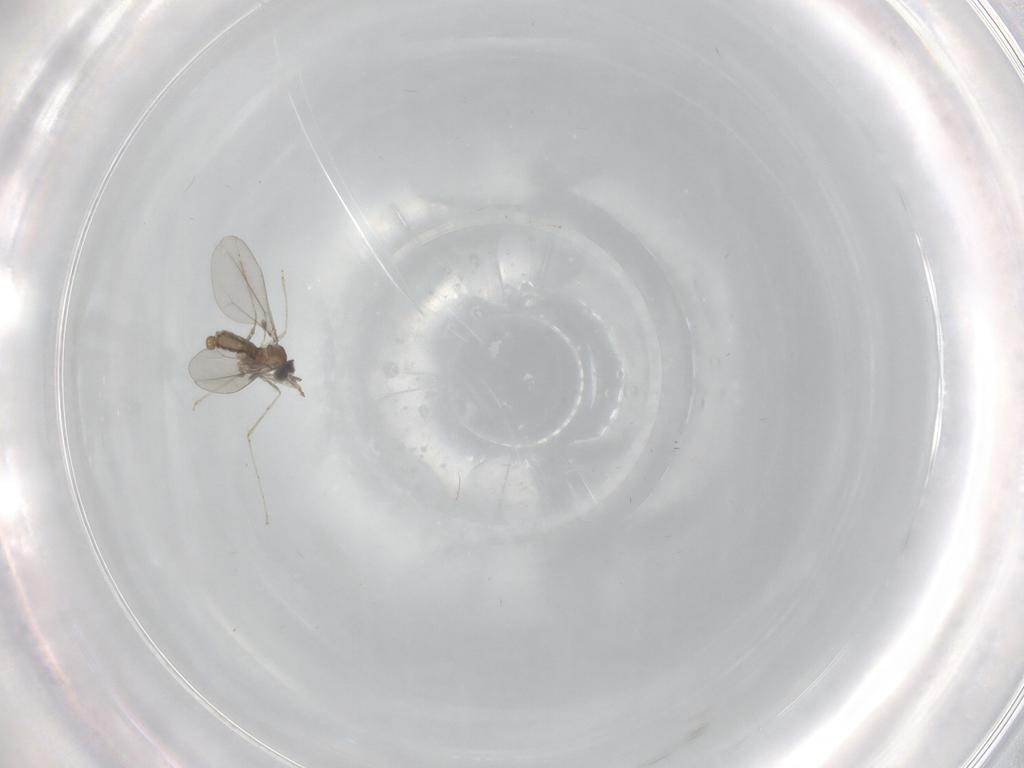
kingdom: Animalia
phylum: Arthropoda
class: Insecta
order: Diptera
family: Cecidomyiidae
